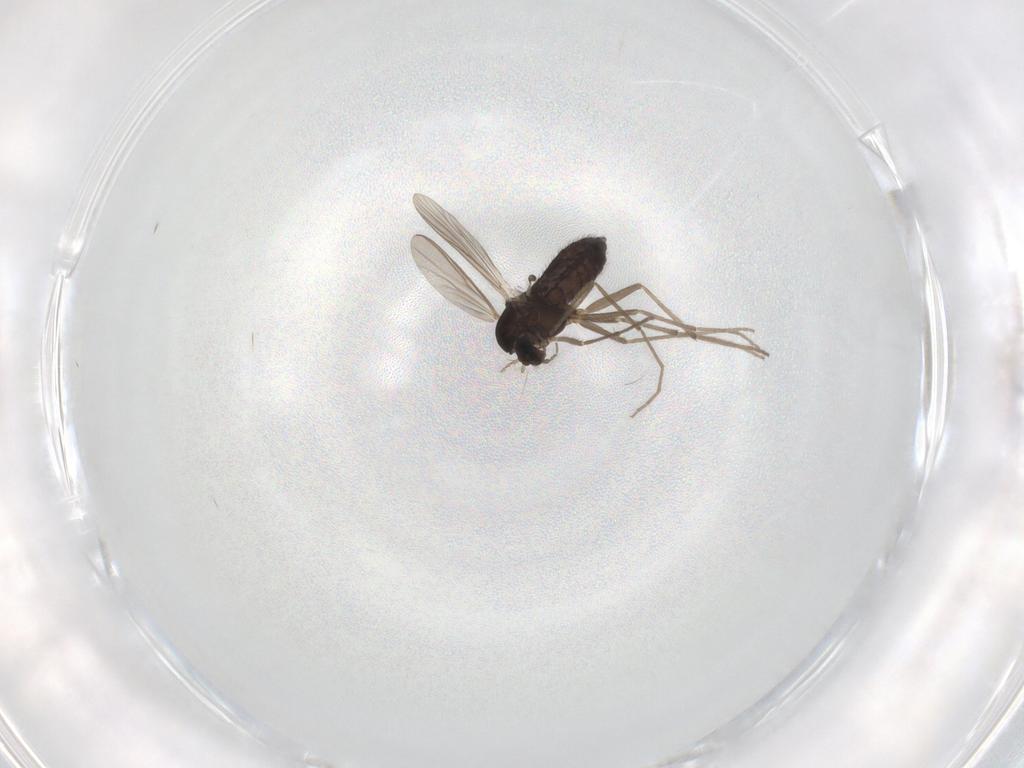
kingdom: Animalia
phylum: Arthropoda
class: Insecta
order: Diptera
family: Chironomidae
